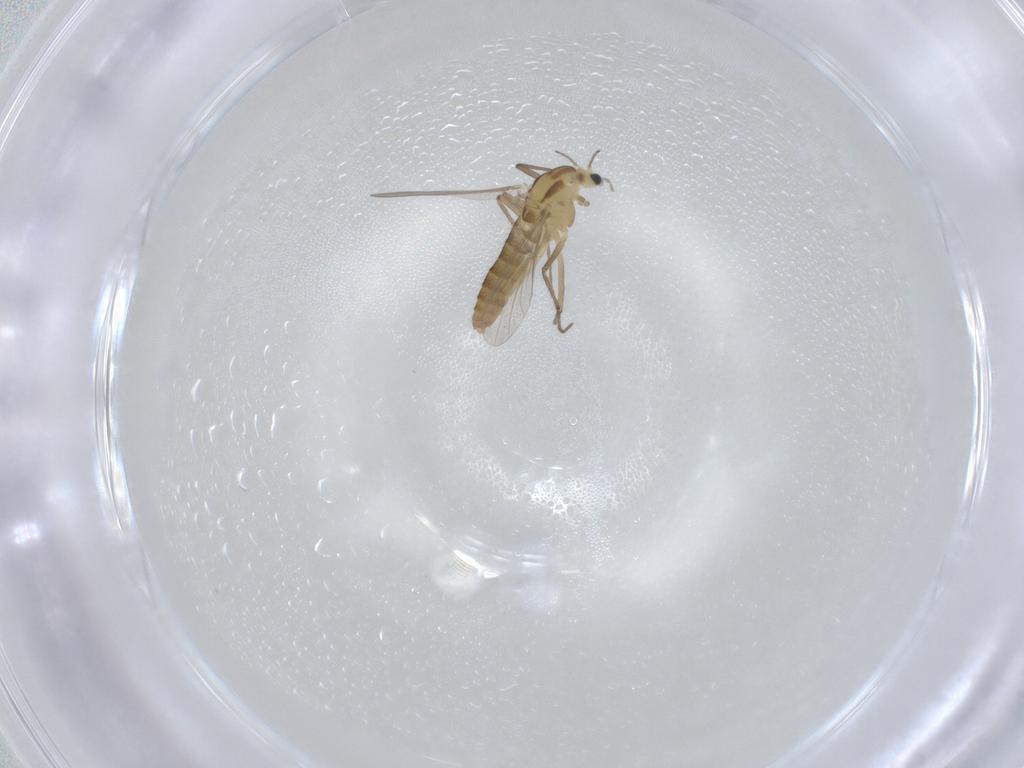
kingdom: Animalia
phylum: Arthropoda
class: Insecta
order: Diptera
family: Chironomidae
